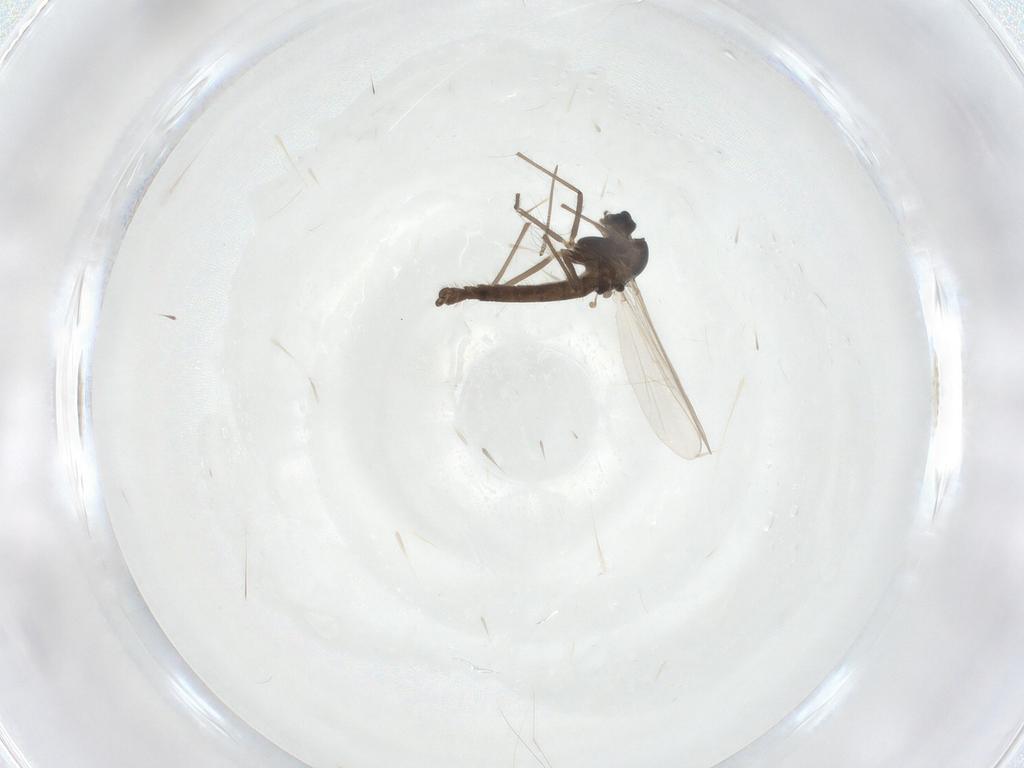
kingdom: Animalia
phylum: Arthropoda
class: Insecta
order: Diptera
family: Chironomidae
